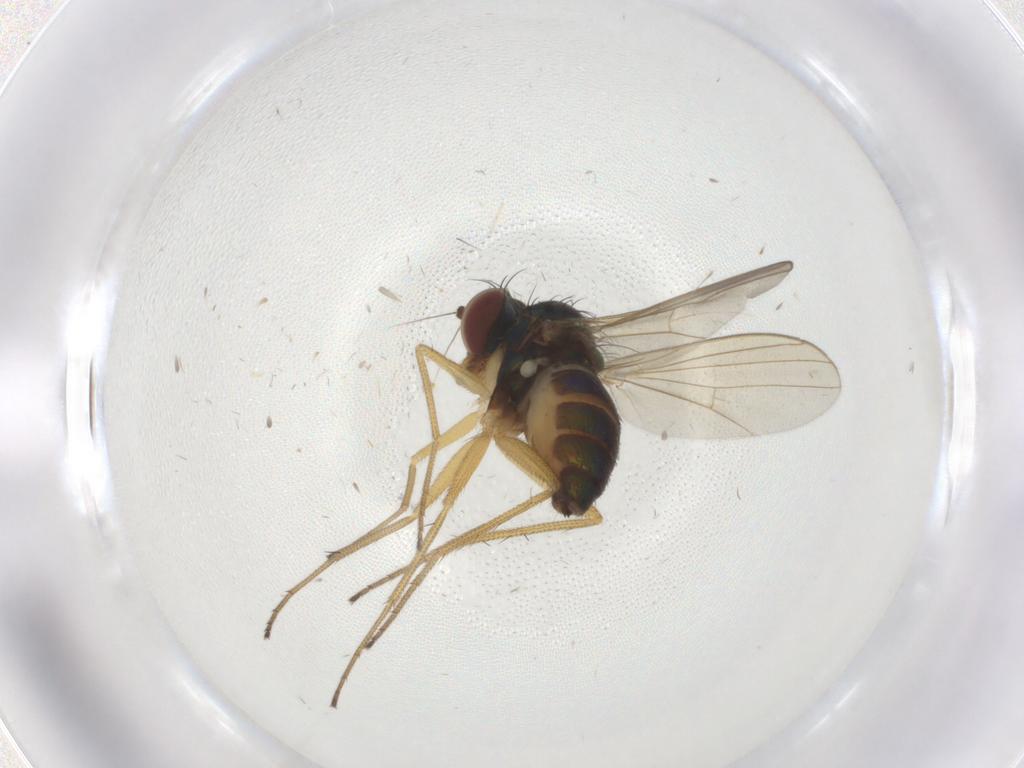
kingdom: Animalia
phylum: Arthropoda
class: Insecta
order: Diptera
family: Dolichopodidae
